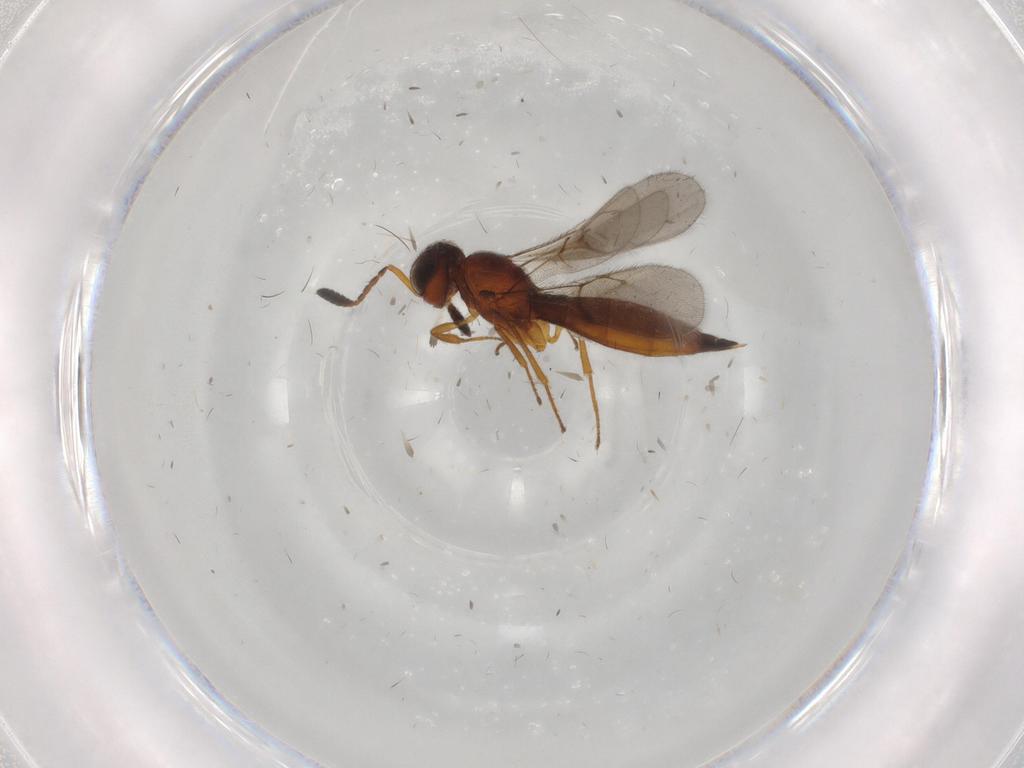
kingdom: Animalia
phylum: Arthropoda
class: Insecta
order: Hymenoptera
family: Scelionidae
